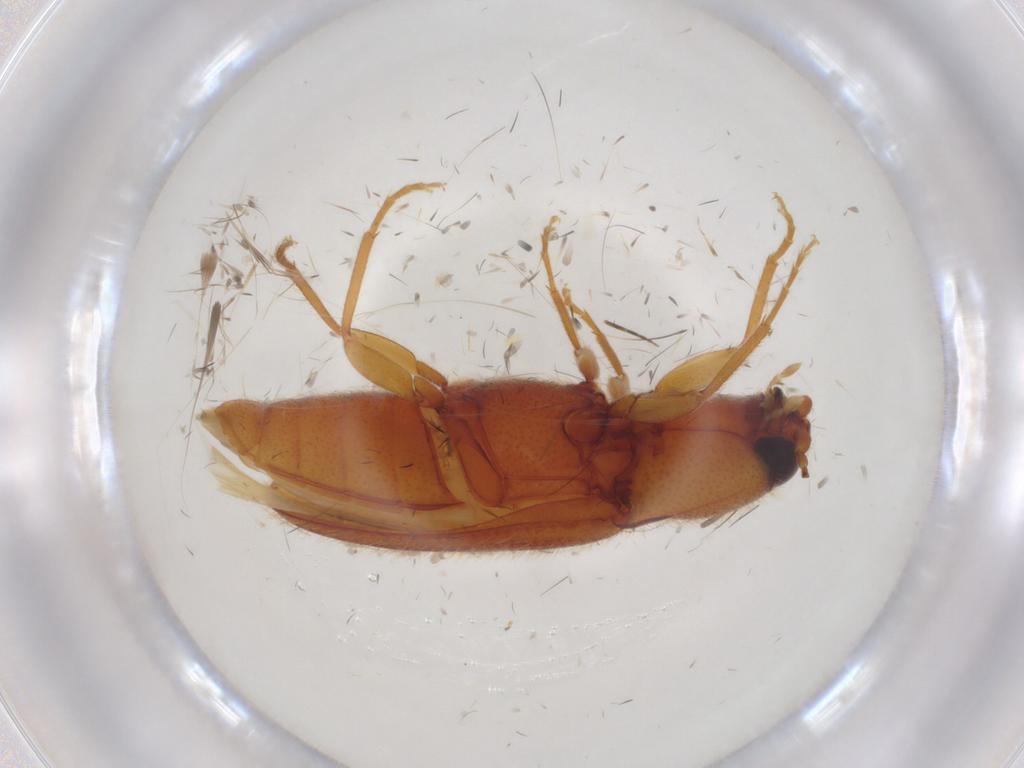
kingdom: Animalia
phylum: Arthropoda
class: Insecta
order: Coleoptera
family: Elateridae
